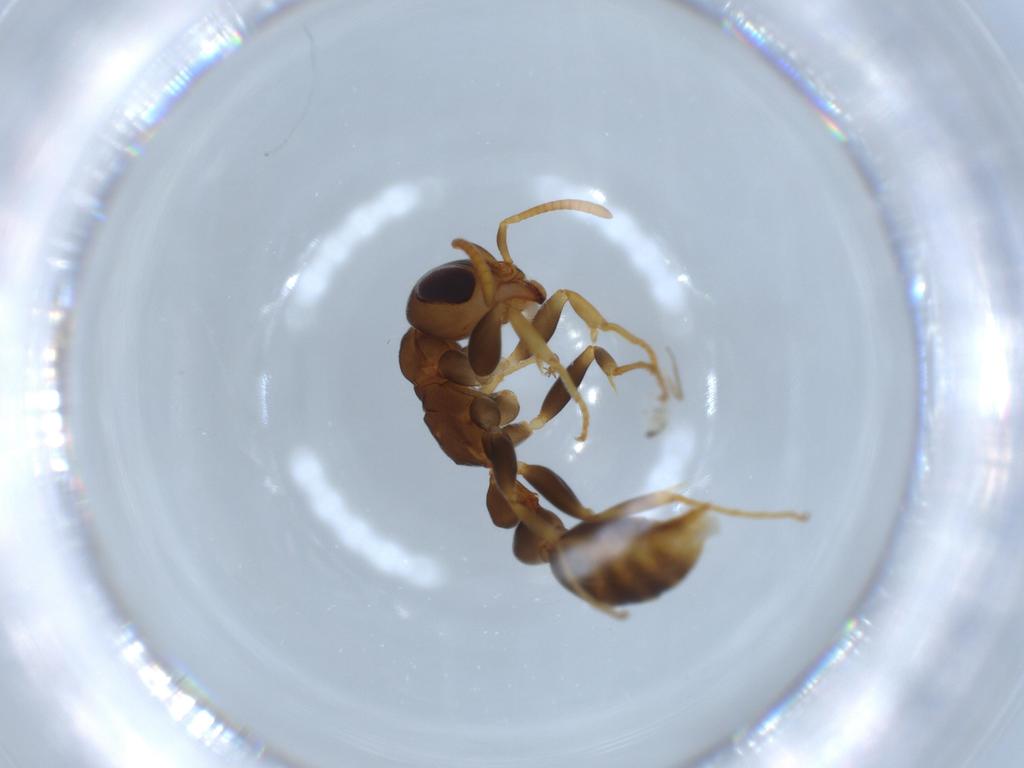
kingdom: Animalia
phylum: Arthropoda
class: Insecta
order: Hymenoptera
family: Formicidae
